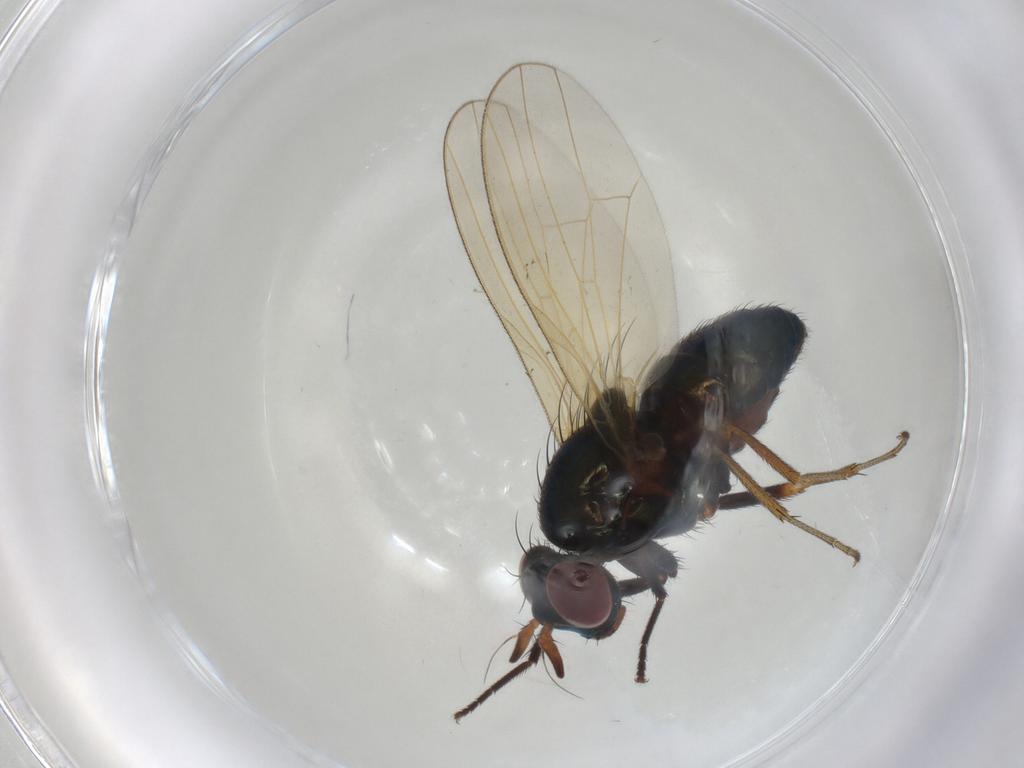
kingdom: Animalia
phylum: Arthropoda
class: Insecta
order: Diptera
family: Lauxaniidae
